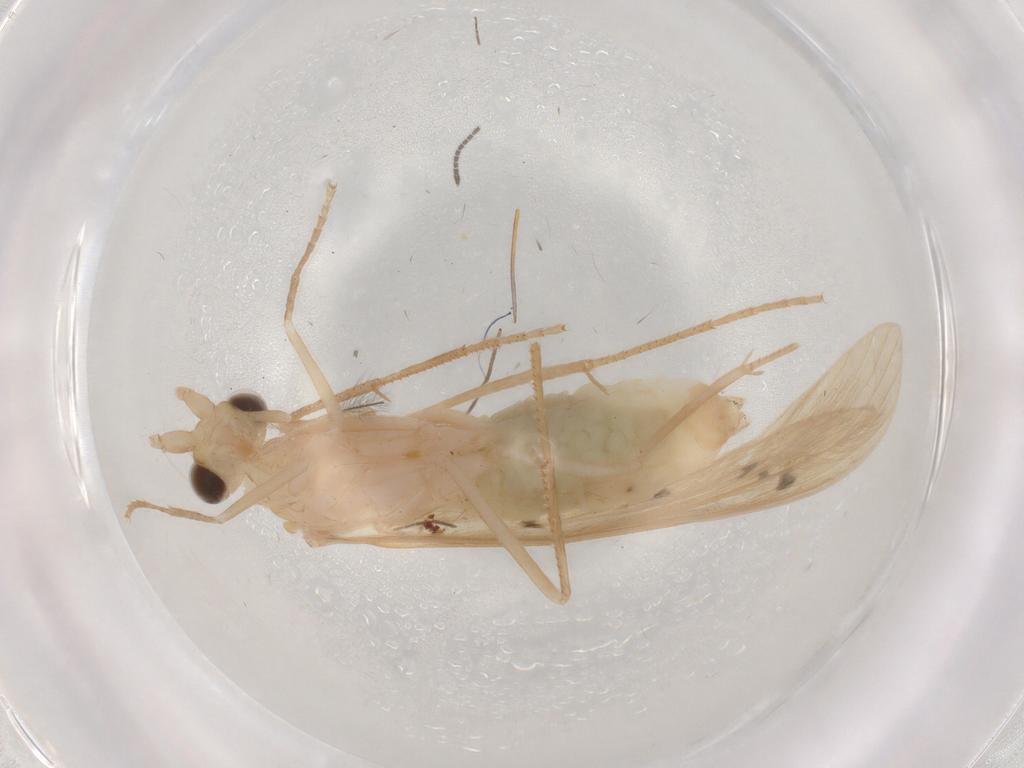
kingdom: Animalia
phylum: Arthropoda
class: Insecta
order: Trichoptera
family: Leptoceridae
